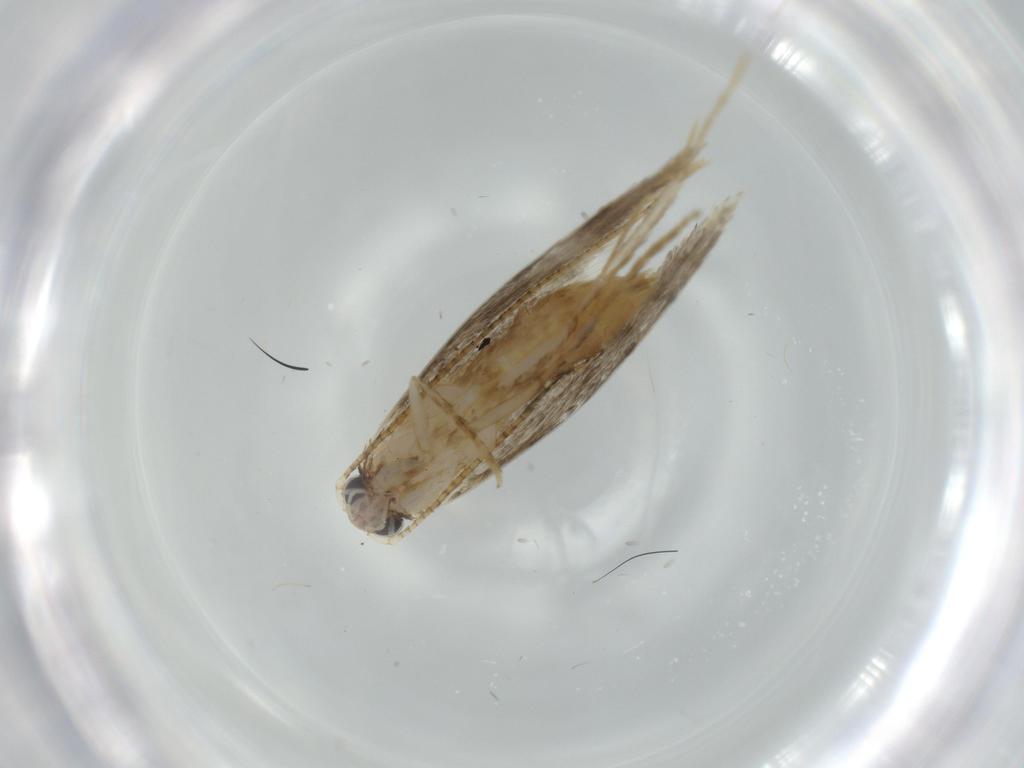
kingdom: Animalia
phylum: Arthropoda
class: Insecta
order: Lepidoptera
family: Tineidae
